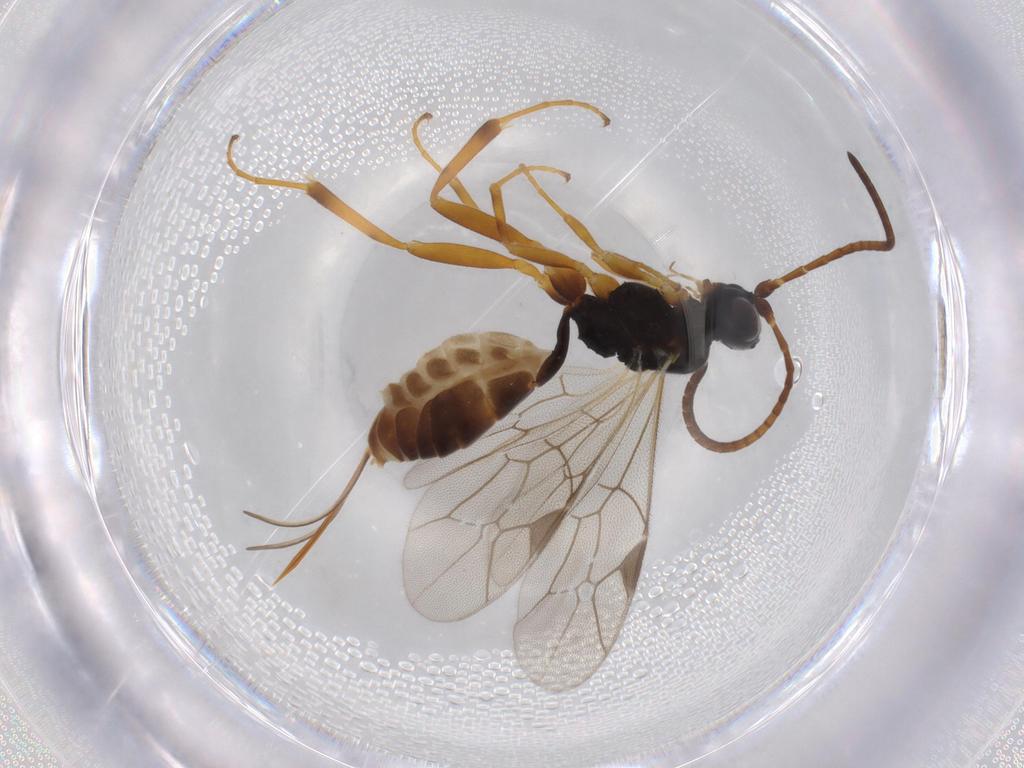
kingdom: Animalia
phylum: Arthropoda
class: Insecta
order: Hymenoptera
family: Ichneumonidae
